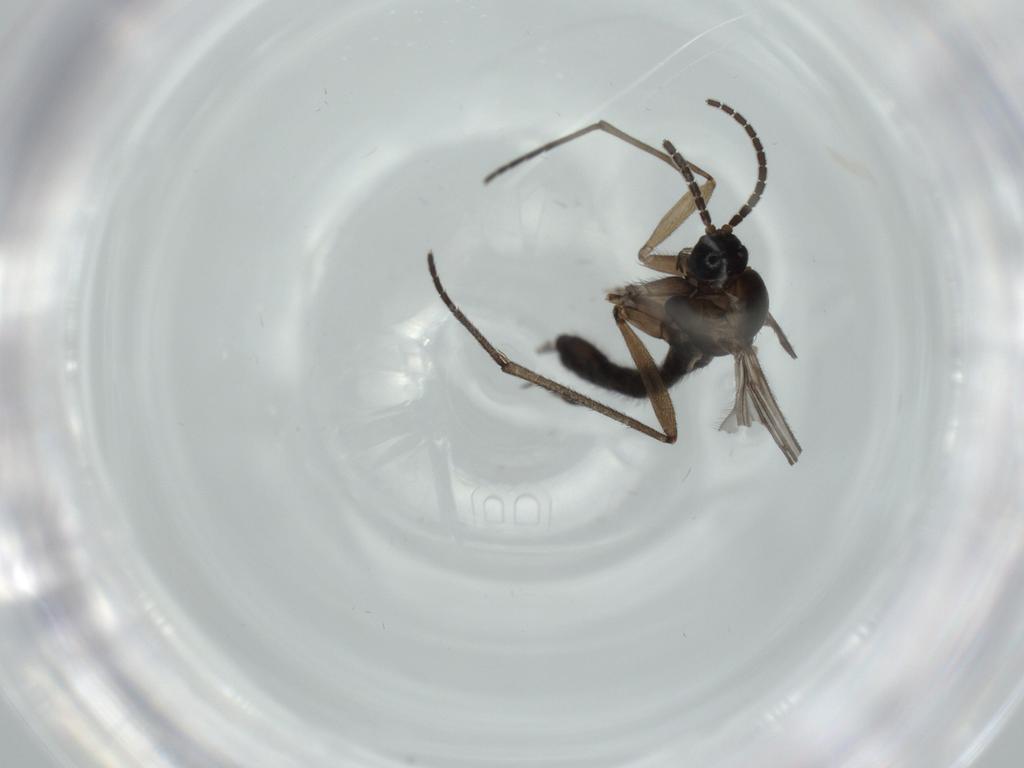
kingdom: Animalia
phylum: Arthropoda
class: Insecta
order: Diptera
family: Sciaridae
